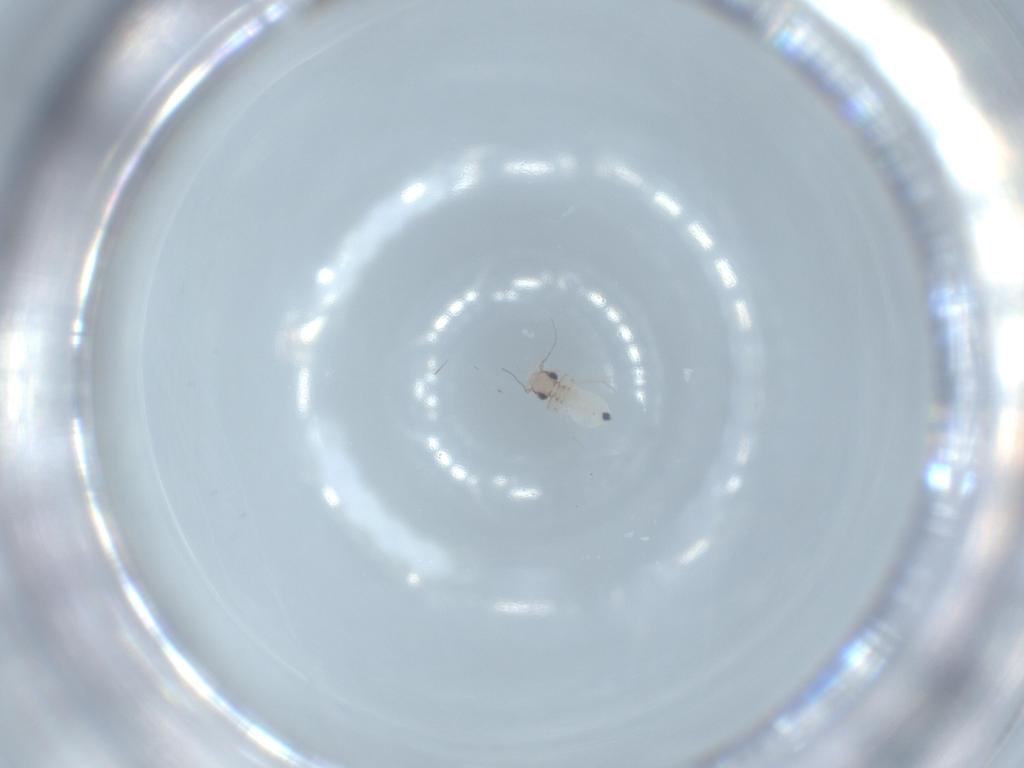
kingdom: Animalia
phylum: Arthropoda
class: Insecta
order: Psocodea
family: Lepidopsocidae
